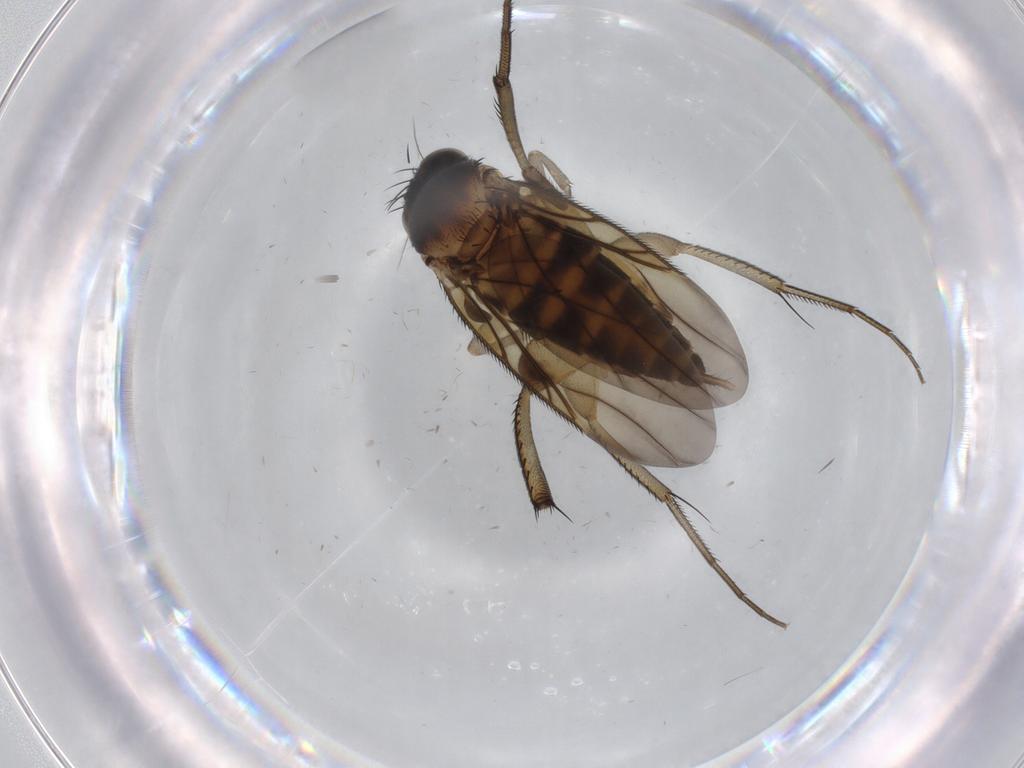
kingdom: Animalia
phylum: Arthropoda
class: Insecta
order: Diptera
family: Phoridae
